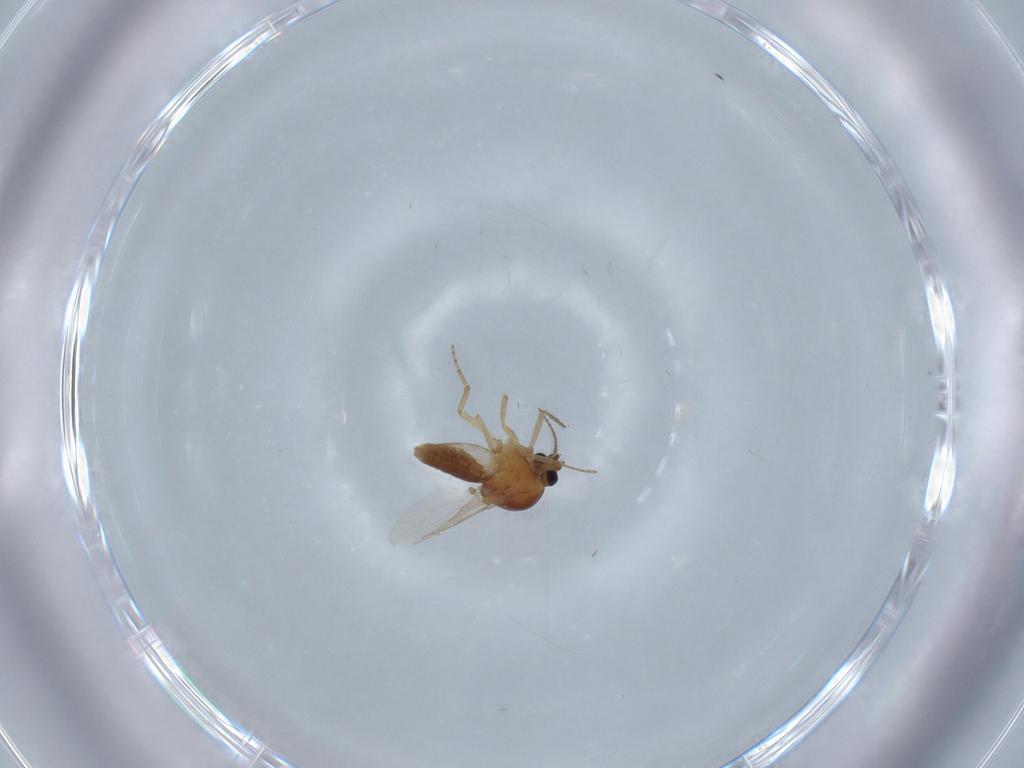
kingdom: Animalia
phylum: Arthropoda
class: Insecta
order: Diptera
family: Ceratopogonidae
